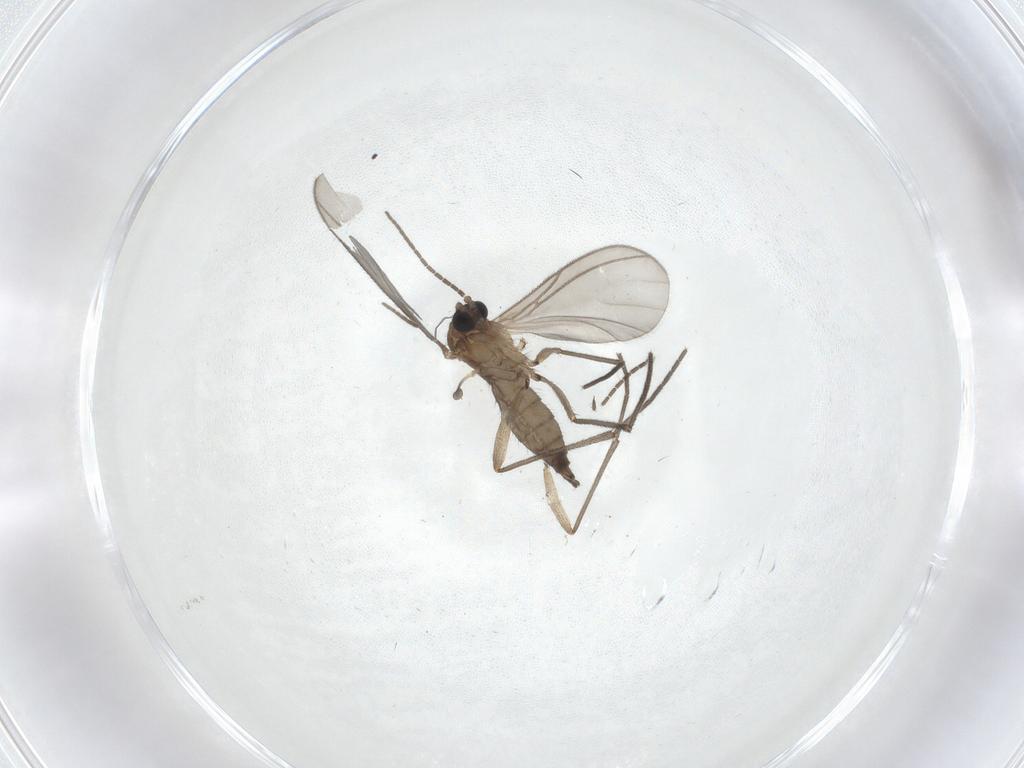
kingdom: Animalia
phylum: Arthropoda
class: Insecta
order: Diptera
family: Sciaridae
